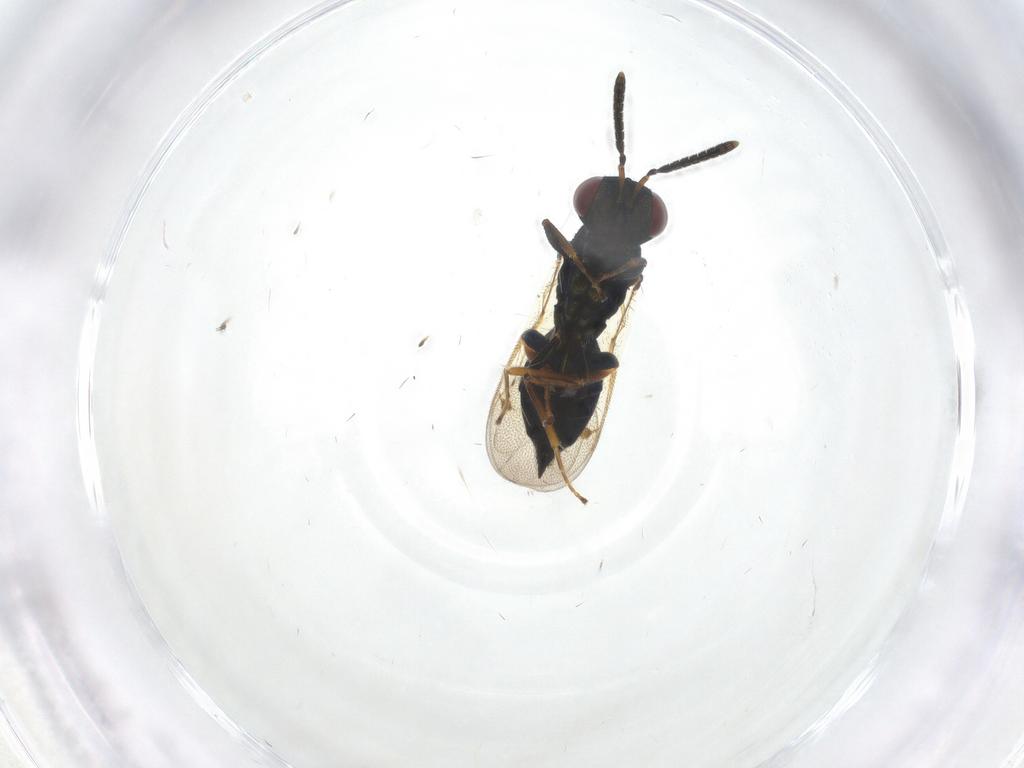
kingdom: Animalia
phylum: Arthropoda
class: Insecta
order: Hymenoptera
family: Pteromalidae
